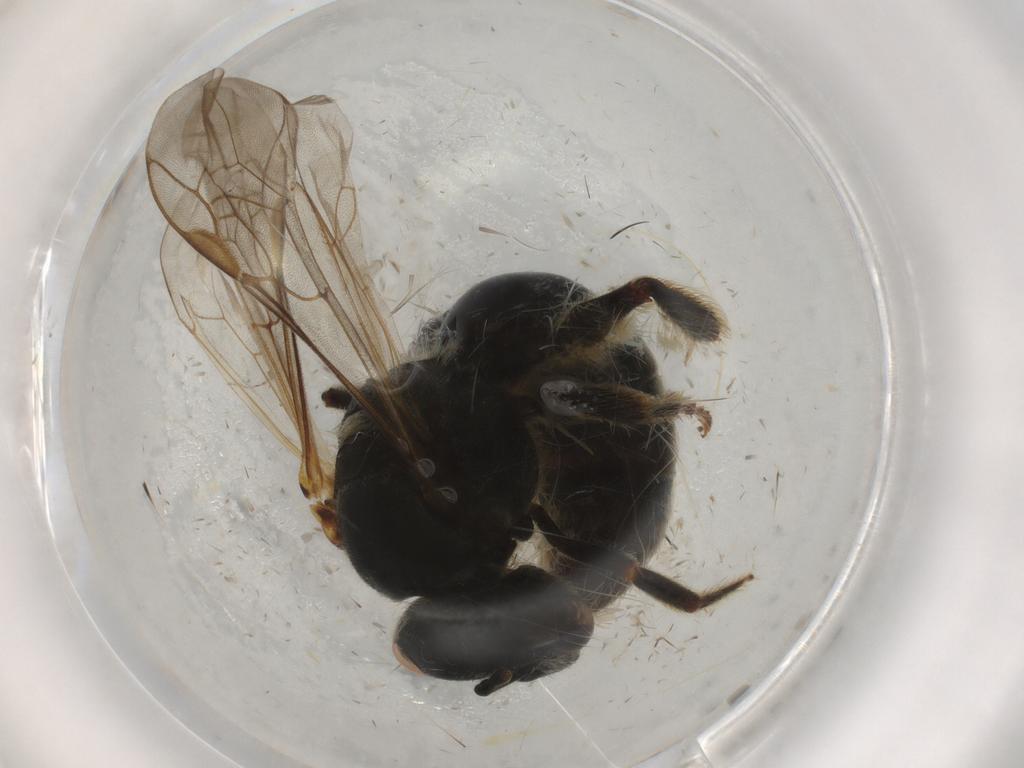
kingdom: Animalia
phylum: Arthropoda
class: Insecta
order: Hymenoptera
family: Halictidae
